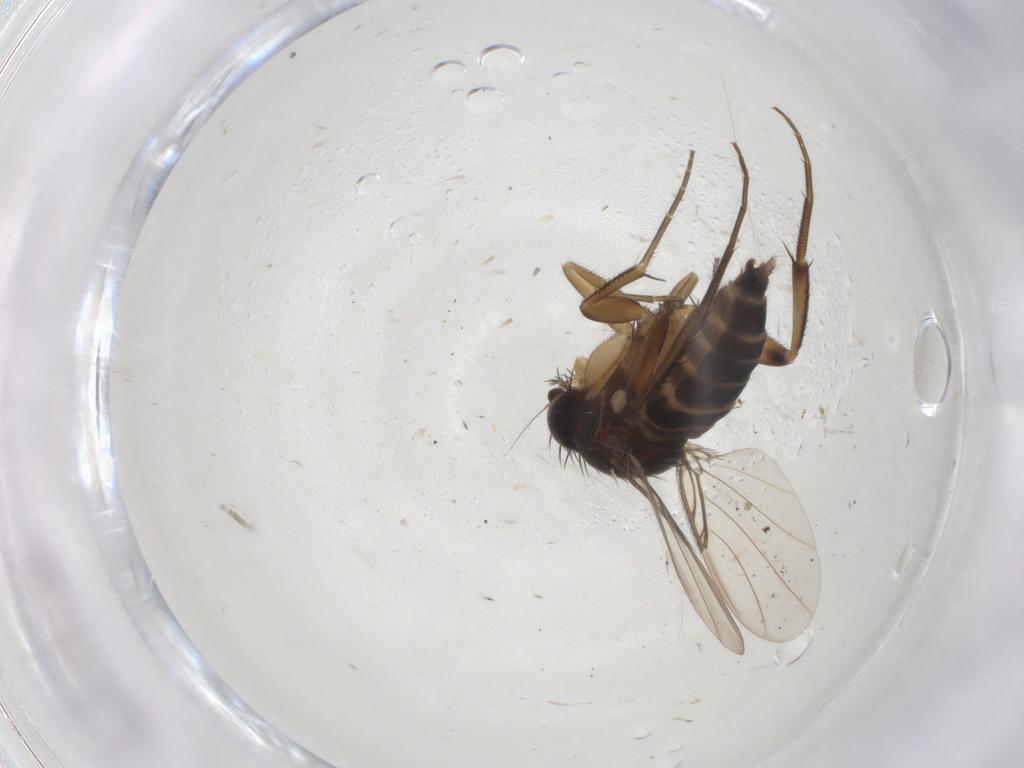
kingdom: Animalia
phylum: Arthropoda
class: Insecta
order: Diptera
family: Phoridae
